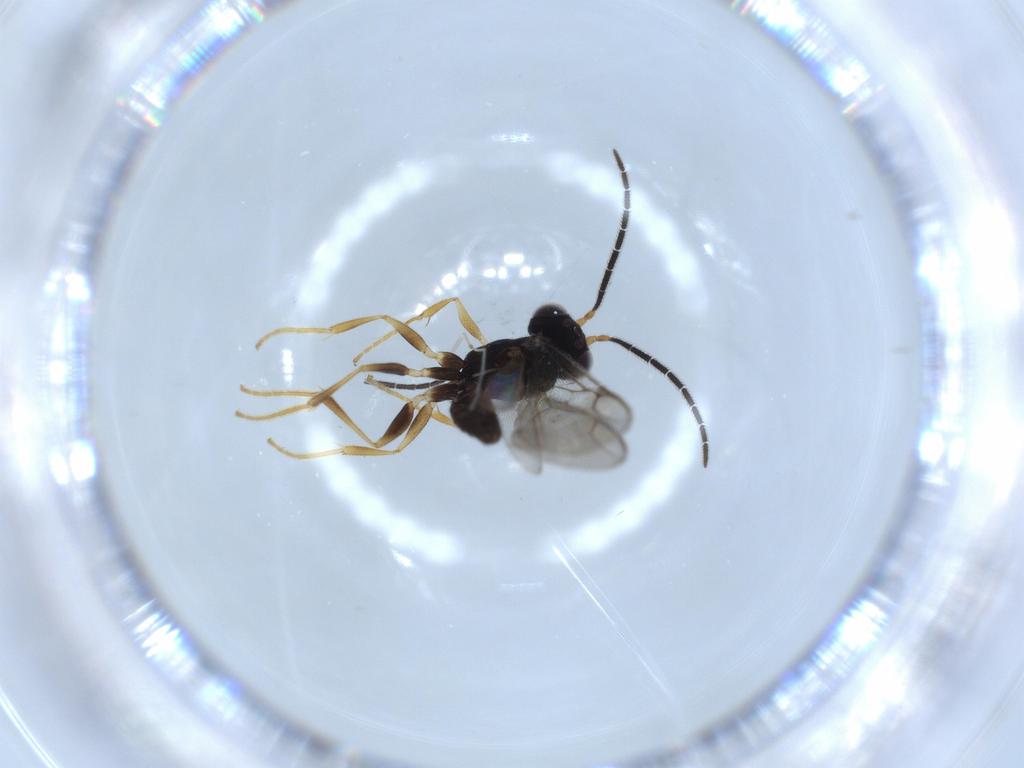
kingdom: Animalia
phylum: Arthropoda
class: Insecta
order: Hymenoptera
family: Dryinidae
